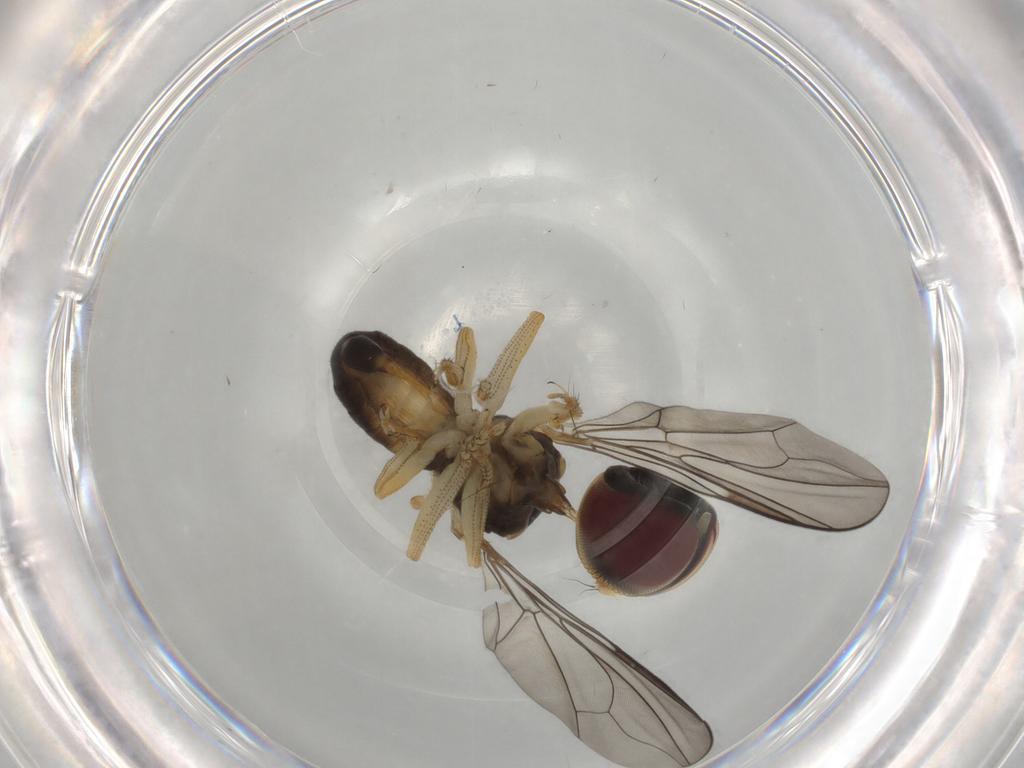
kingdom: Animalia
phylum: Arthropoda
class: Insecta
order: Diptera
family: Pipunculidae
